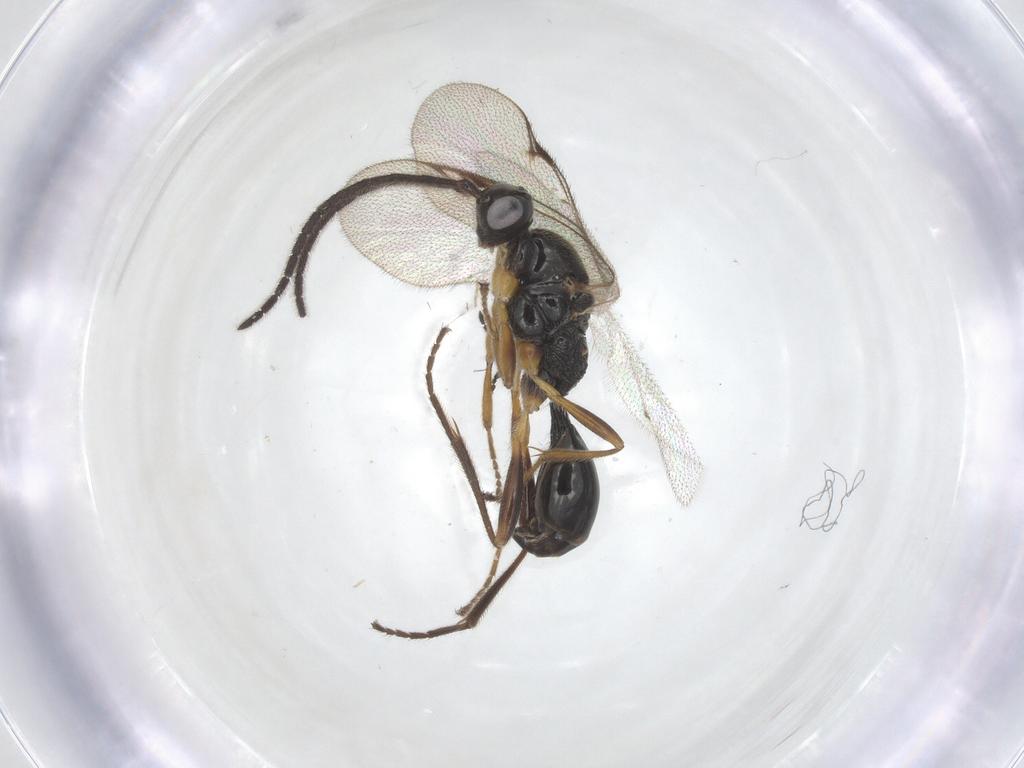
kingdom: Animalia
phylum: Arthropoda
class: Insecta
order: Hymenoptera
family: Proctotrupidae
